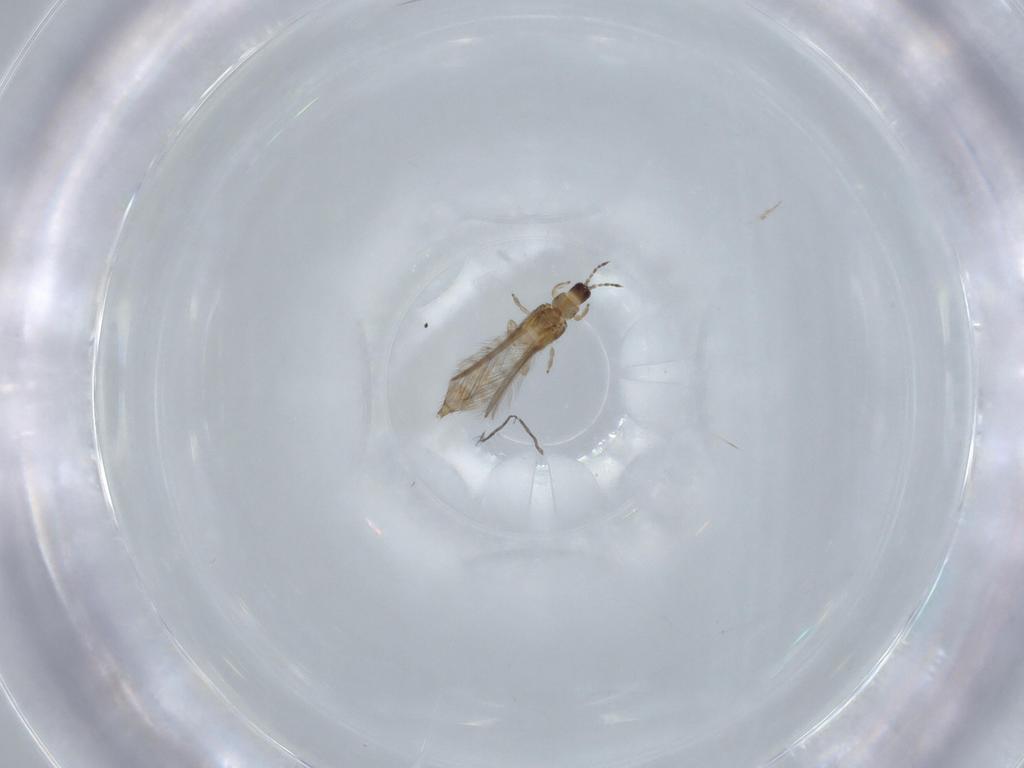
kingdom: Animalia
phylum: Arthropoda
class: Insecta
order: Thysanoptera
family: Thripidae
